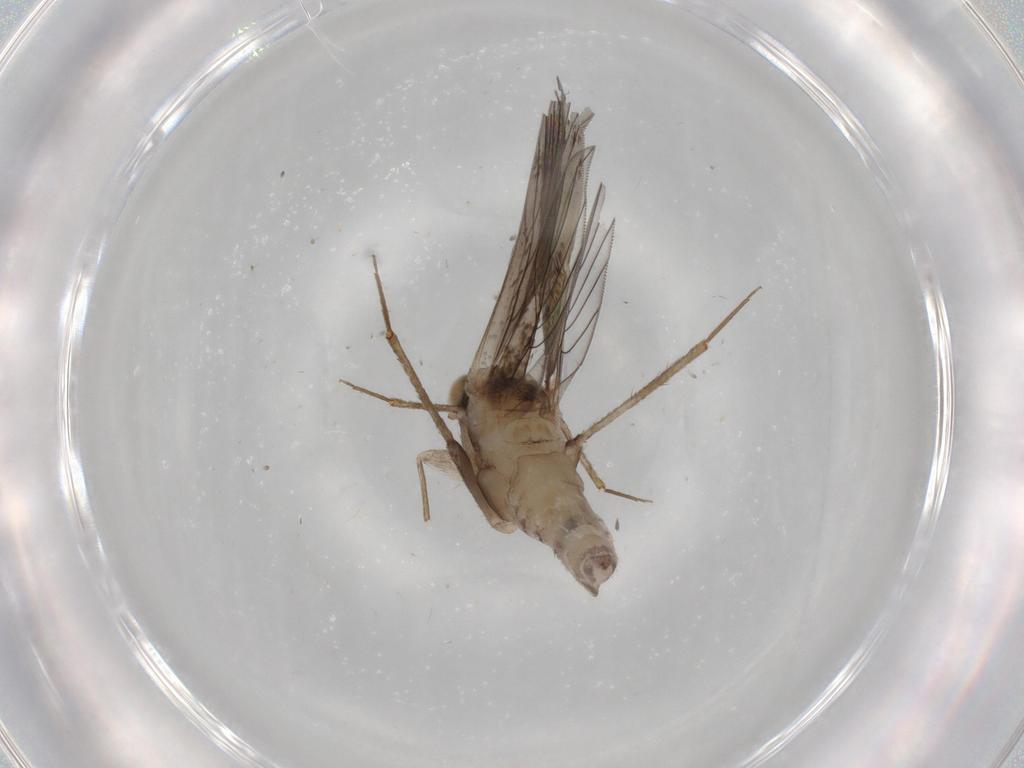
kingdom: Animalia
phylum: Arthropoda
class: Insecta
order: Psocodea
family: Lepidopsocidae
